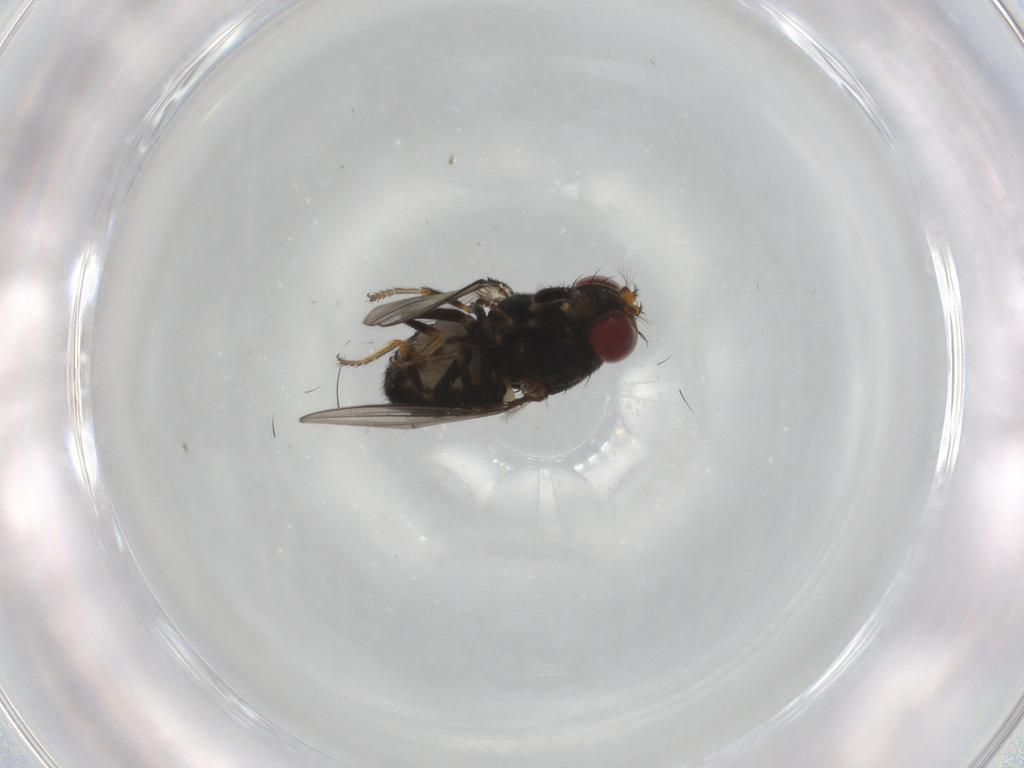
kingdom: Animalia
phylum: Arthropoda
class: Insecta
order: Diptera
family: Ephydridae
